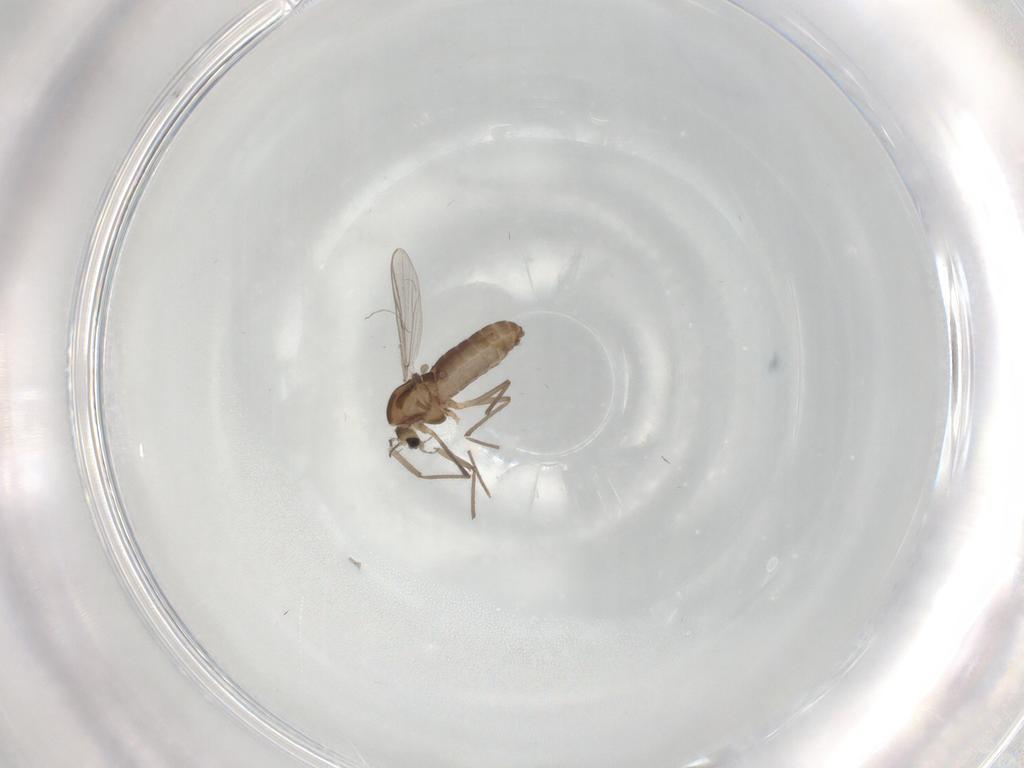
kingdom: Animalia
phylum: Arthropoda
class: Insecta
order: Diptera
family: Chironomidae
